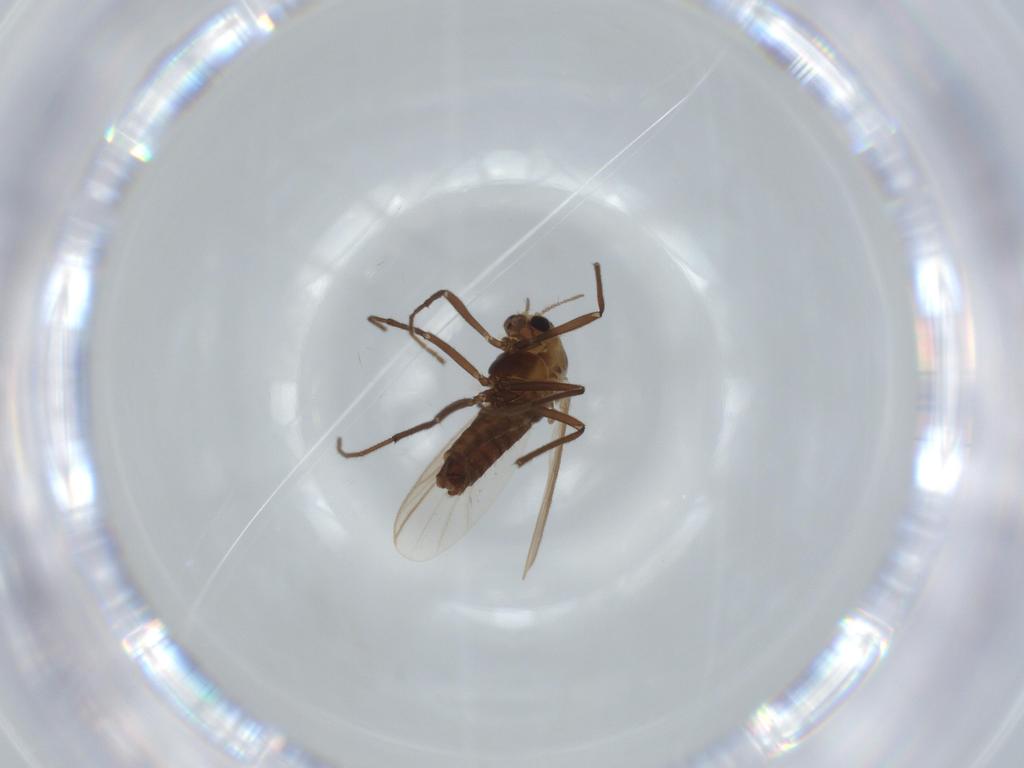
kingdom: Animalia
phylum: Arthropoda
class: Insecta
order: Diptera
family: Chironomidae
